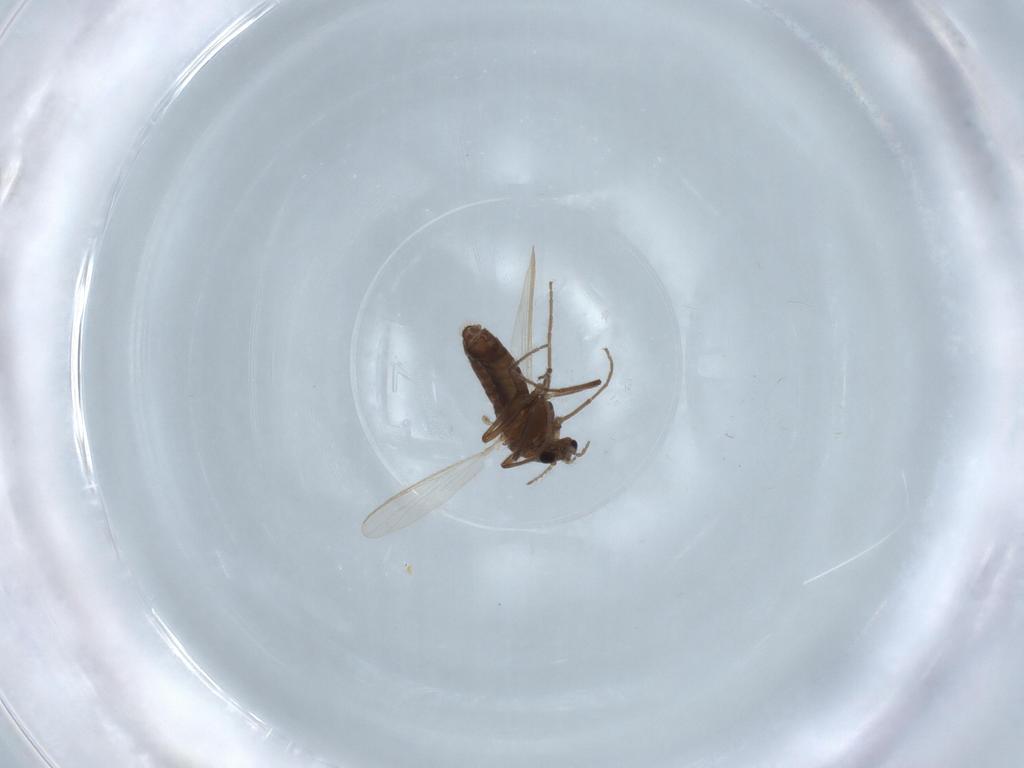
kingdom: Animalia
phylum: Arthropoda
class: Insecta
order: Diptera
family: Chironomidae
